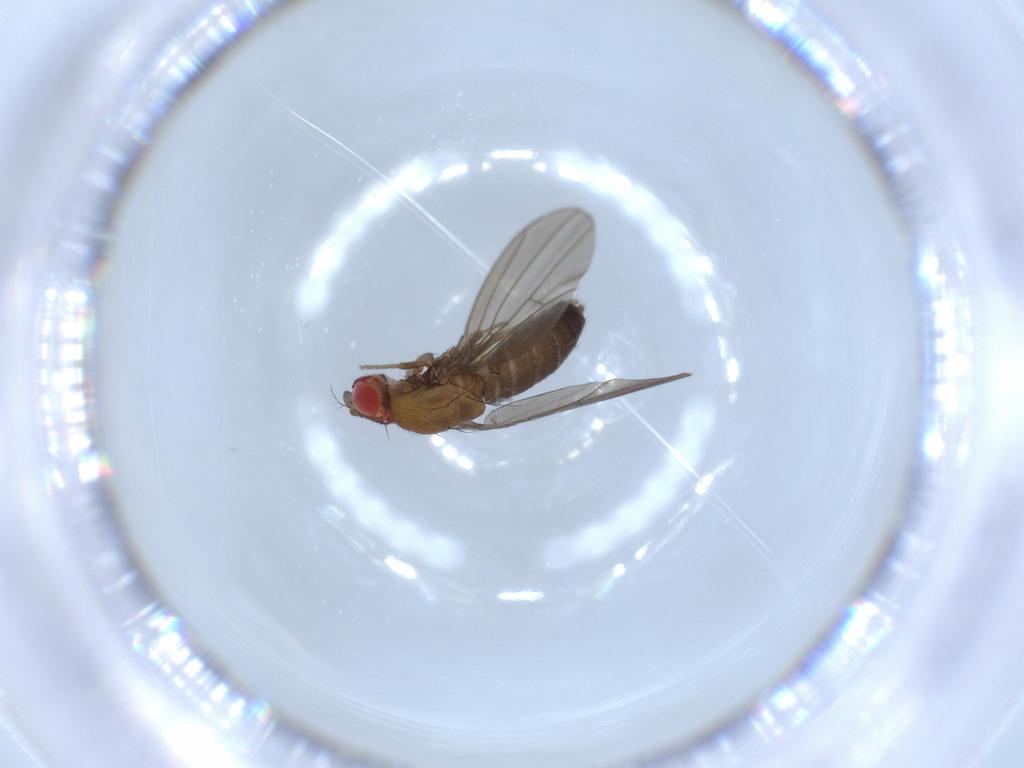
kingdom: Animalia
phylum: Arthropoda
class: Insecta
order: Diptera
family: Drosophilidae
